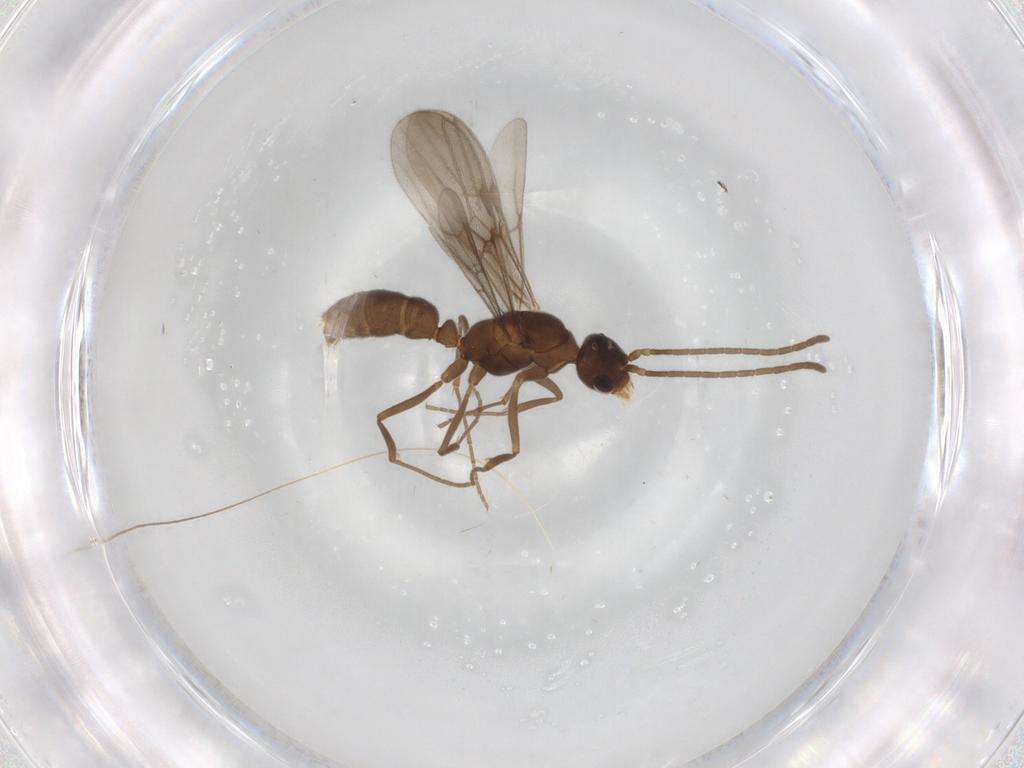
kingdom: Animalia
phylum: Arthropoda
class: Insecta
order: Hymenoptera
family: Formicidae
